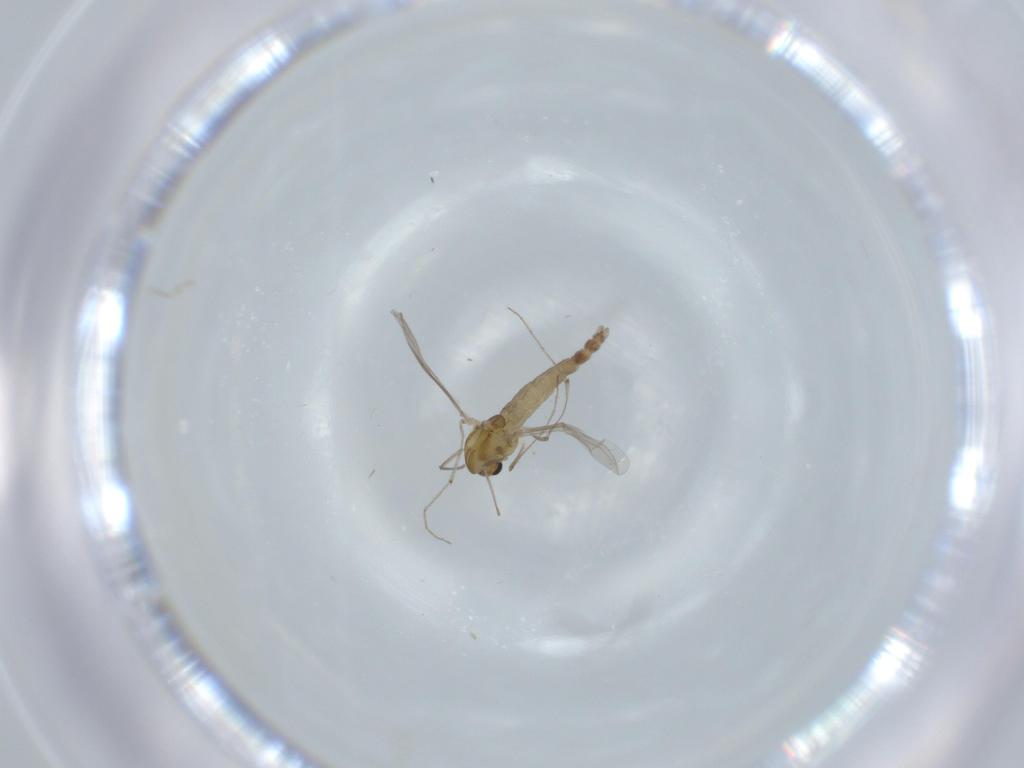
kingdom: Animalia
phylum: Arthropoda
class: Insecta
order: Diptera
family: Chironomidae
